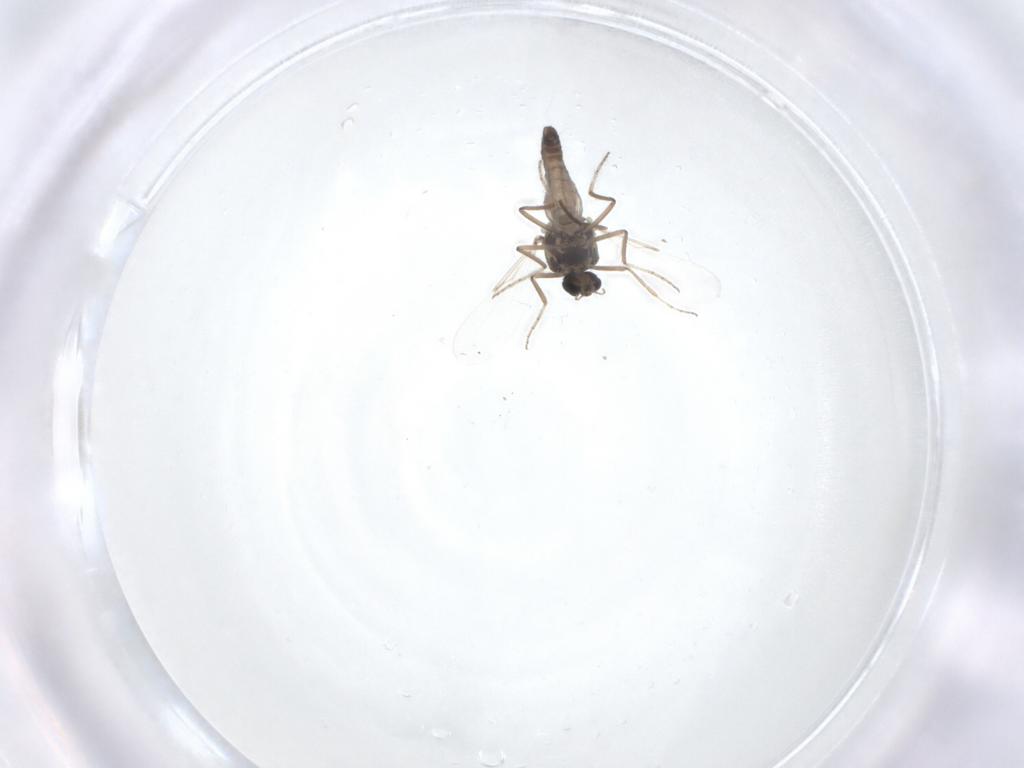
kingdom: Animalia
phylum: Arthropoda
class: Insecta
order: Diptera
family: Ceratopogonidae
